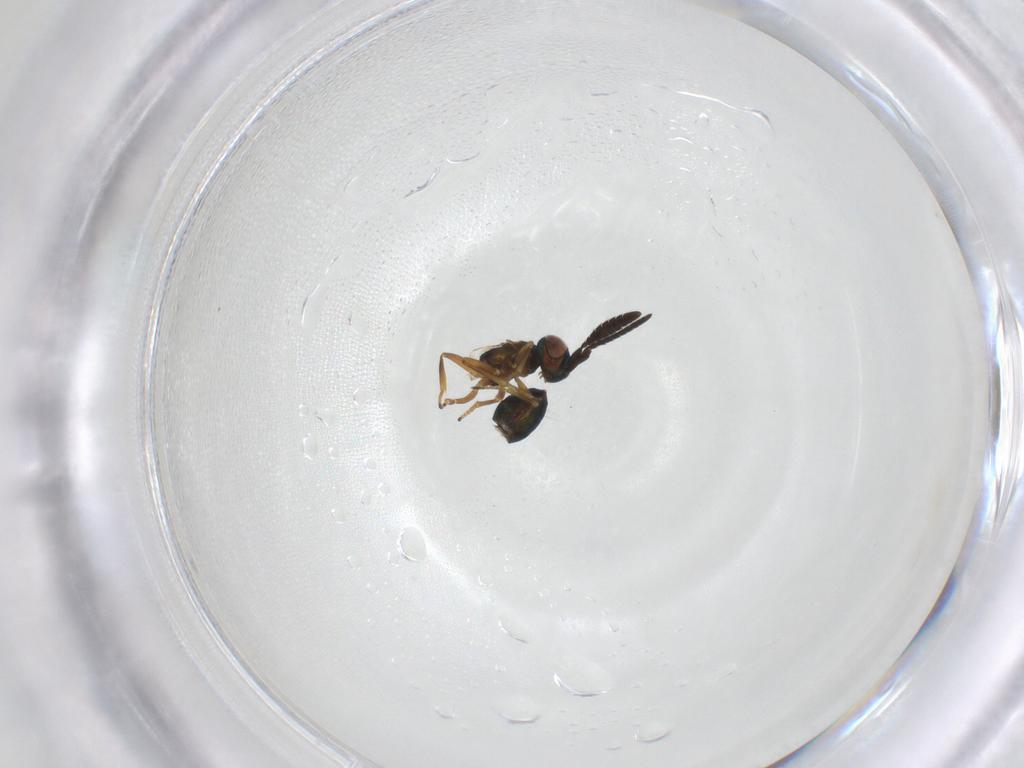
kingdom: Animalia
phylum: Arthropoda
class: Insecta
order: Hymenoptera
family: Encyrtidae
